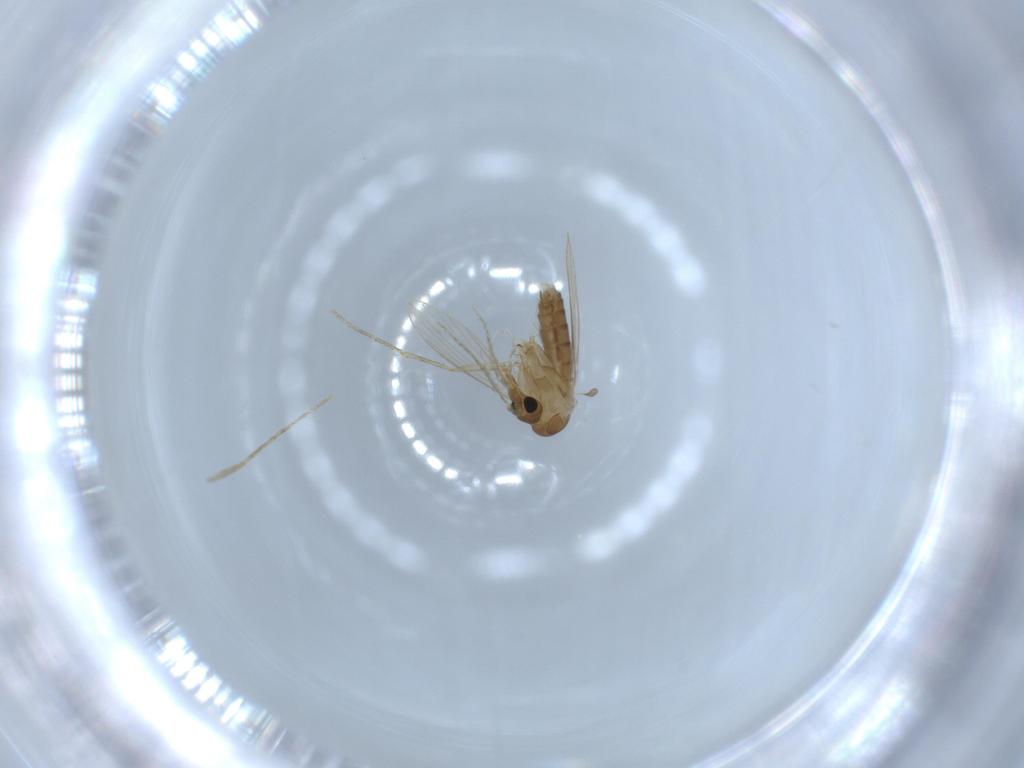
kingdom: Animalia
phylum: Arthropoda
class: Insecta
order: Diptera
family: Psychodidae
